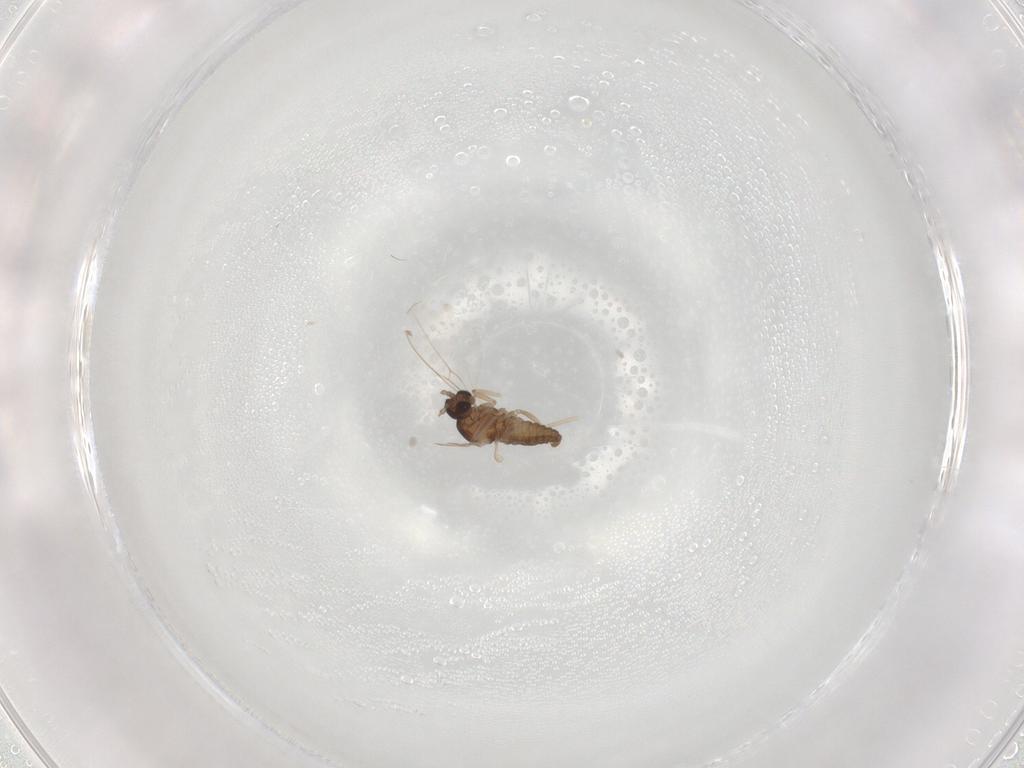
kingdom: Animalia
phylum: Arthropoda
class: Insecta
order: Diptera
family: Cecidomyiidae
